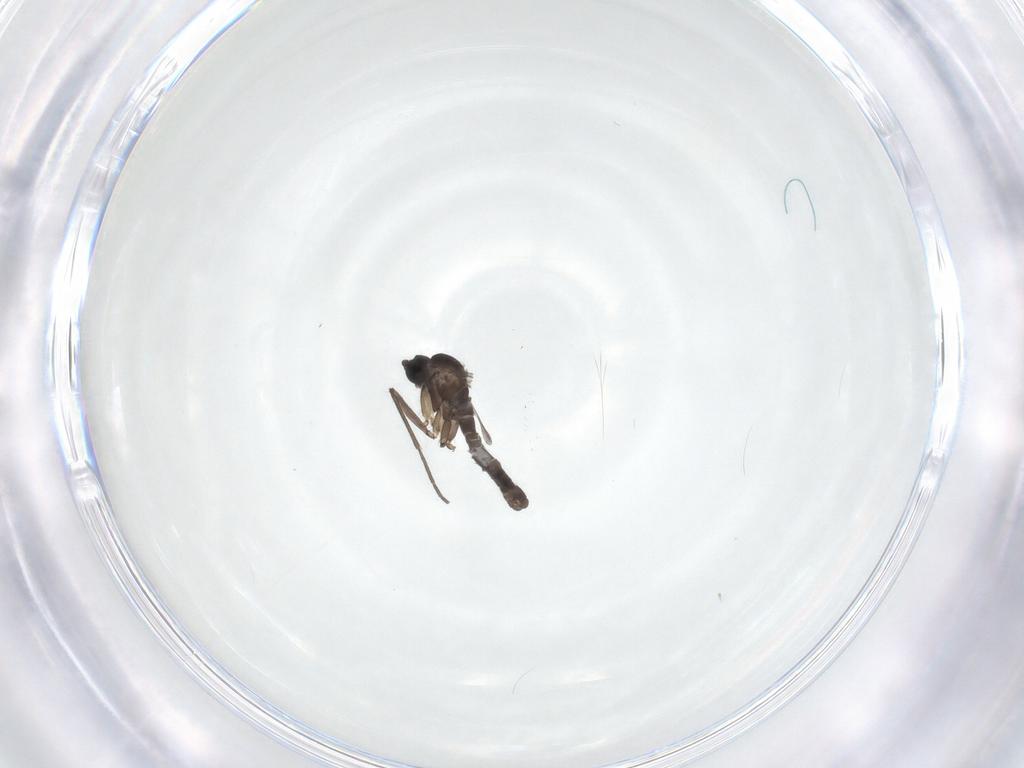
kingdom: Animalia
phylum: Arthropoda
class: Insecta
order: Diptera
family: Sciaridae
